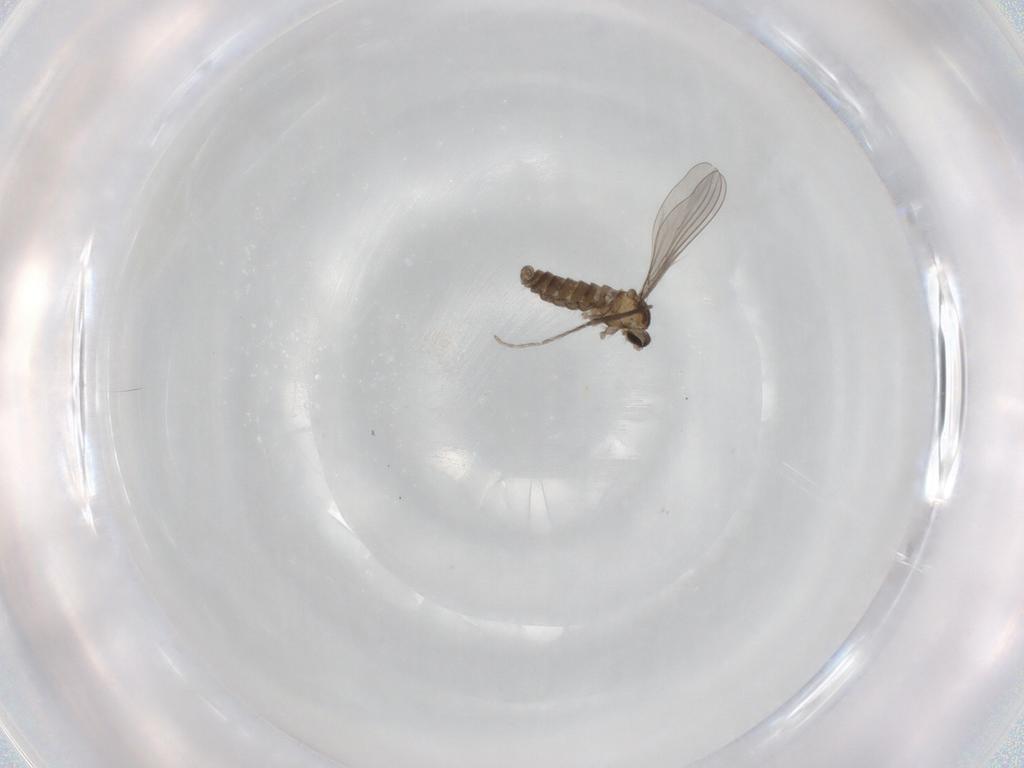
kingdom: Animalia
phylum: Arthropoda
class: Insecta
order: Diptera
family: Cecidomyiidae
